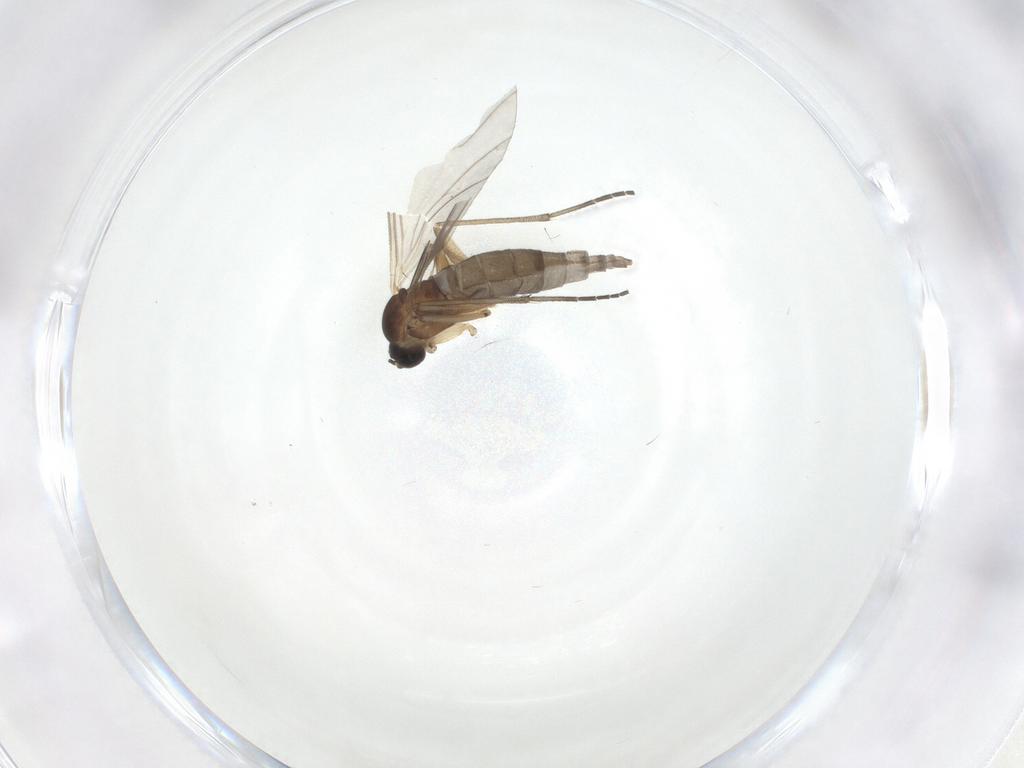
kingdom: Animalia
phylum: Arthropoda
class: Insecta
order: Diptera
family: Sciaridae
